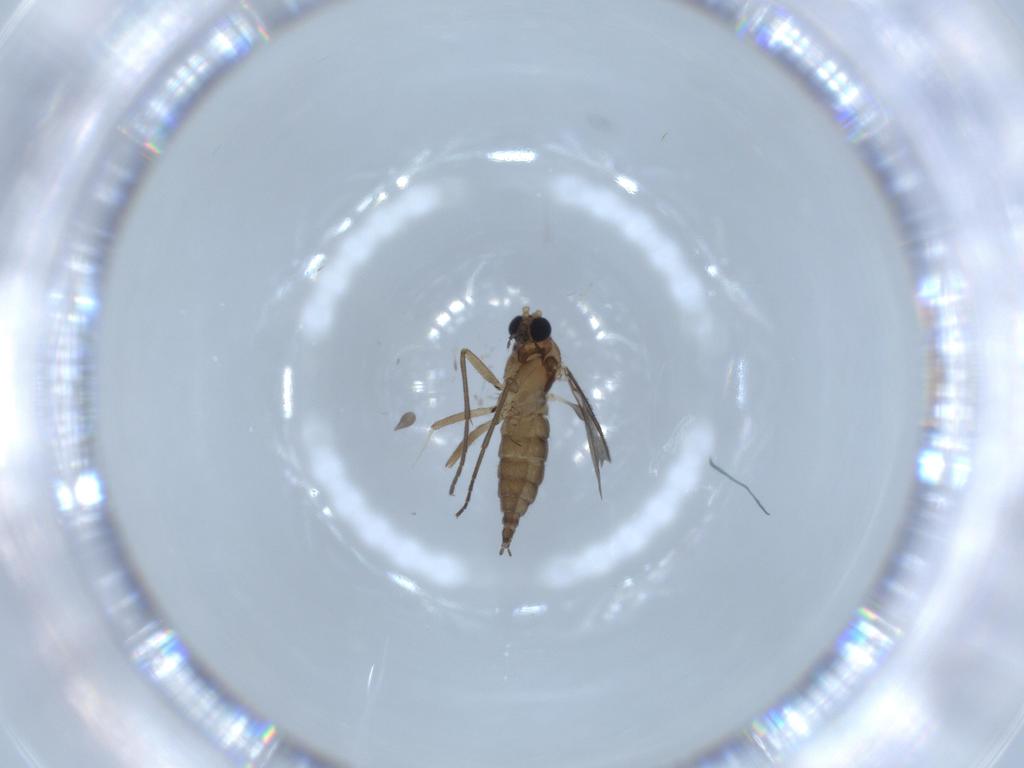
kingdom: Animalia
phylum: Arthropoda
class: Insecta
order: Diptera
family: Sciaridae
